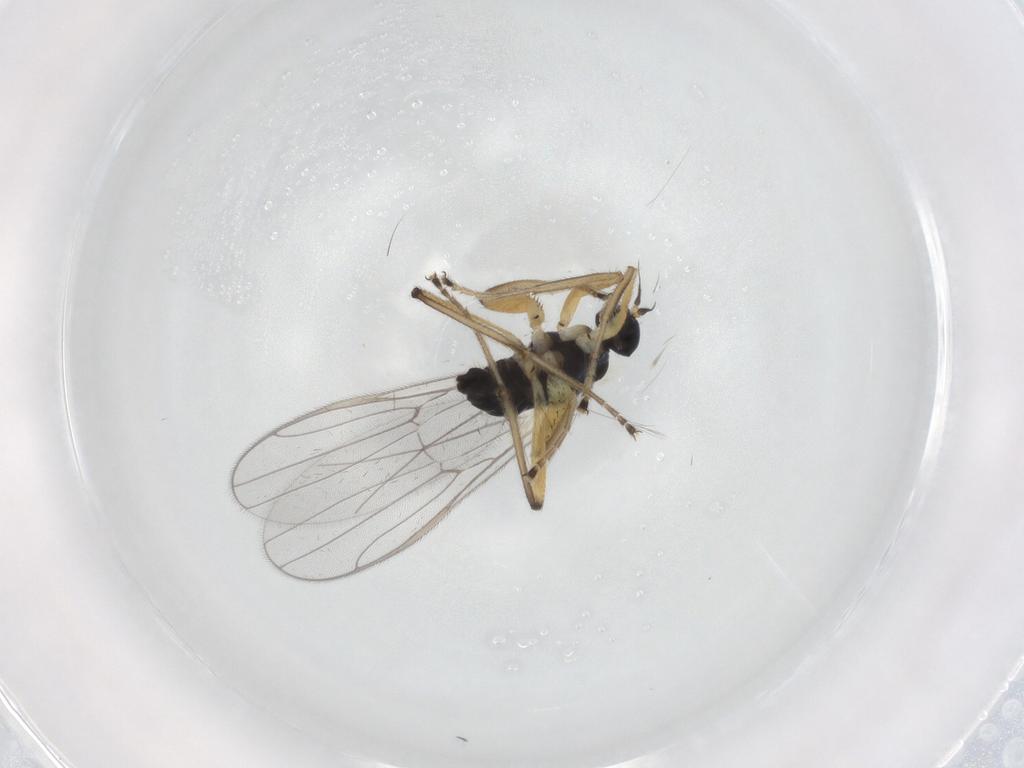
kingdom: Animalia
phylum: Arthropoda
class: Insecta
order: Diptera
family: Hybotidae
